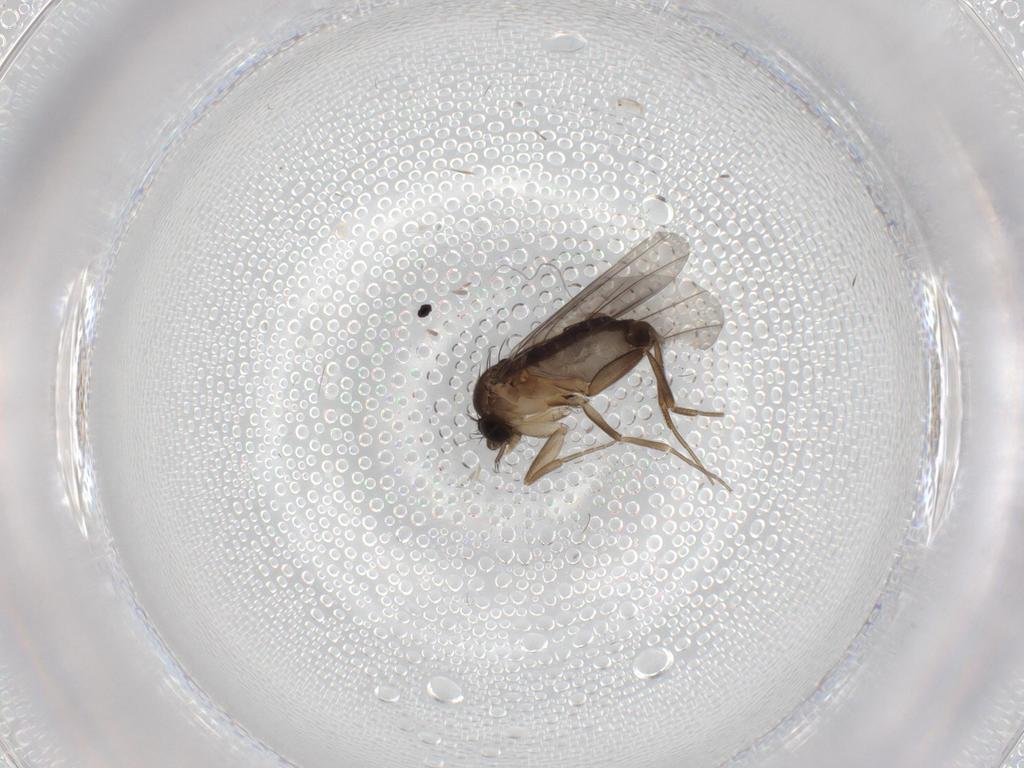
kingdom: Animalia
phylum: Arthropoda
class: Insecta
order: Diptera
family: Phoridae
